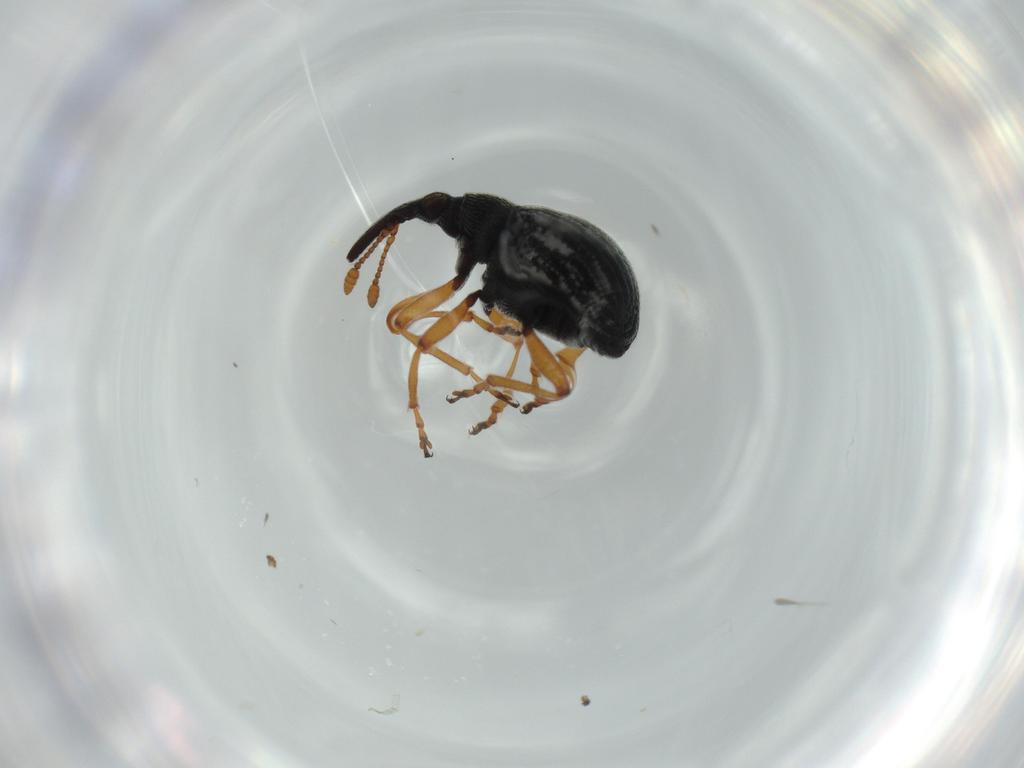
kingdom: Animalia
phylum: Arthropoda
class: Insecta
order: Coleoptera
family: Brentidae
